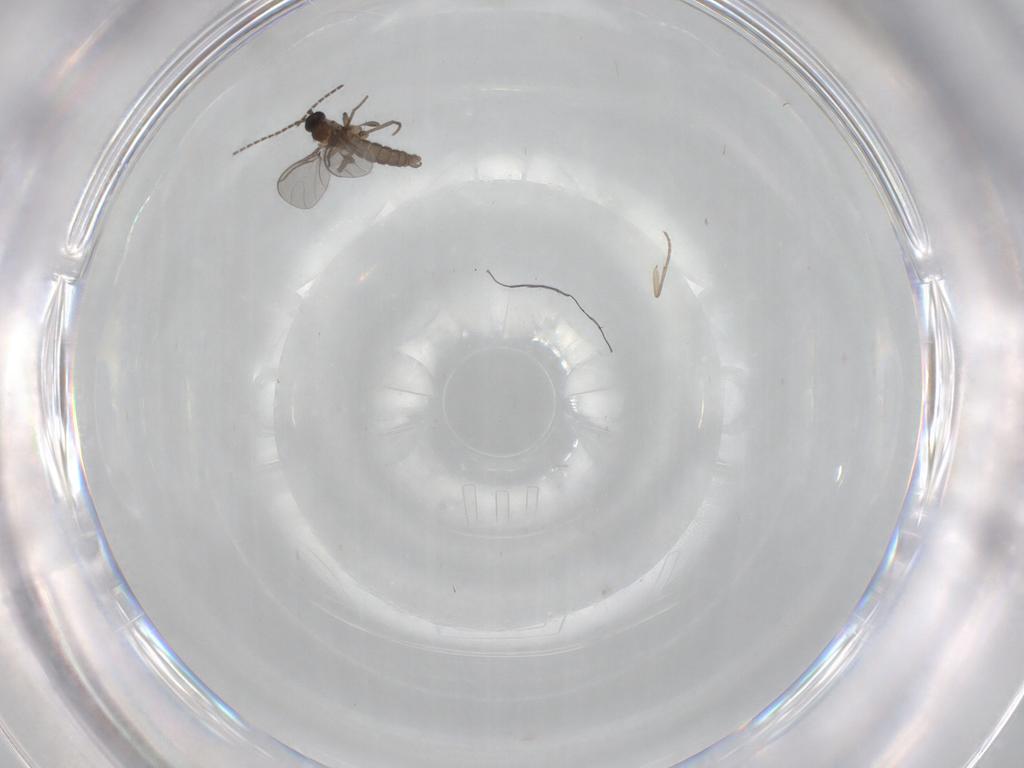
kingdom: Animalia
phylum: Arthropoda
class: Insecta
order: Diptera
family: Sciaridae
